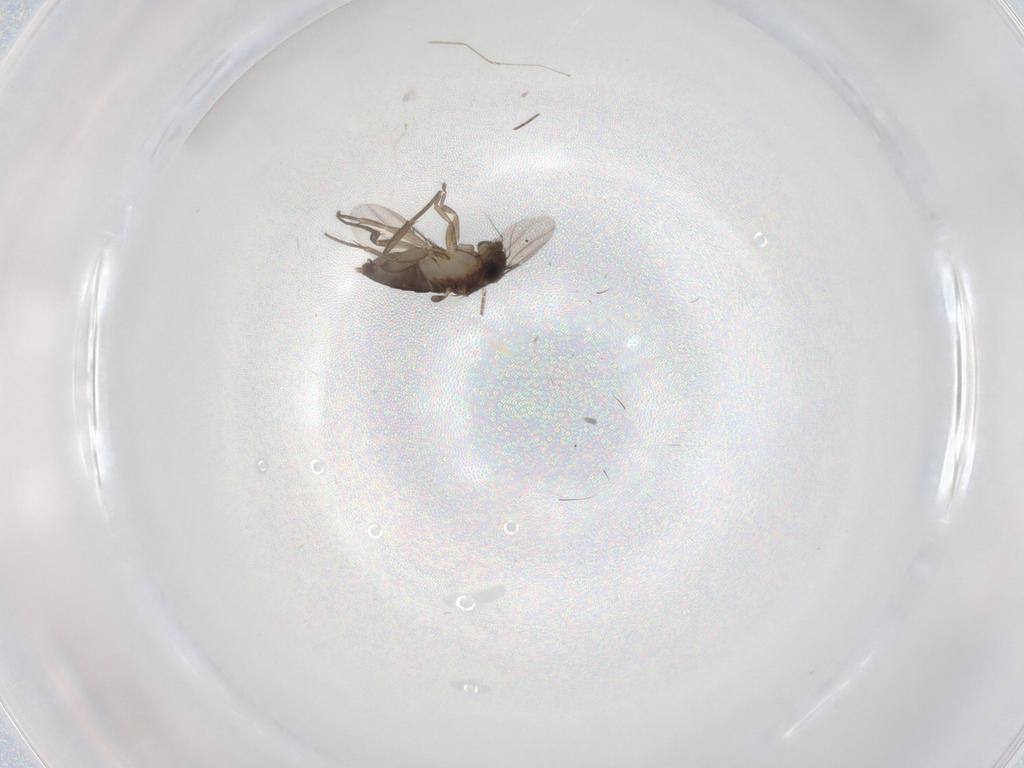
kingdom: Animalia
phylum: Arthropoda
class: Insecta
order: Diptera
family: Phoridae
